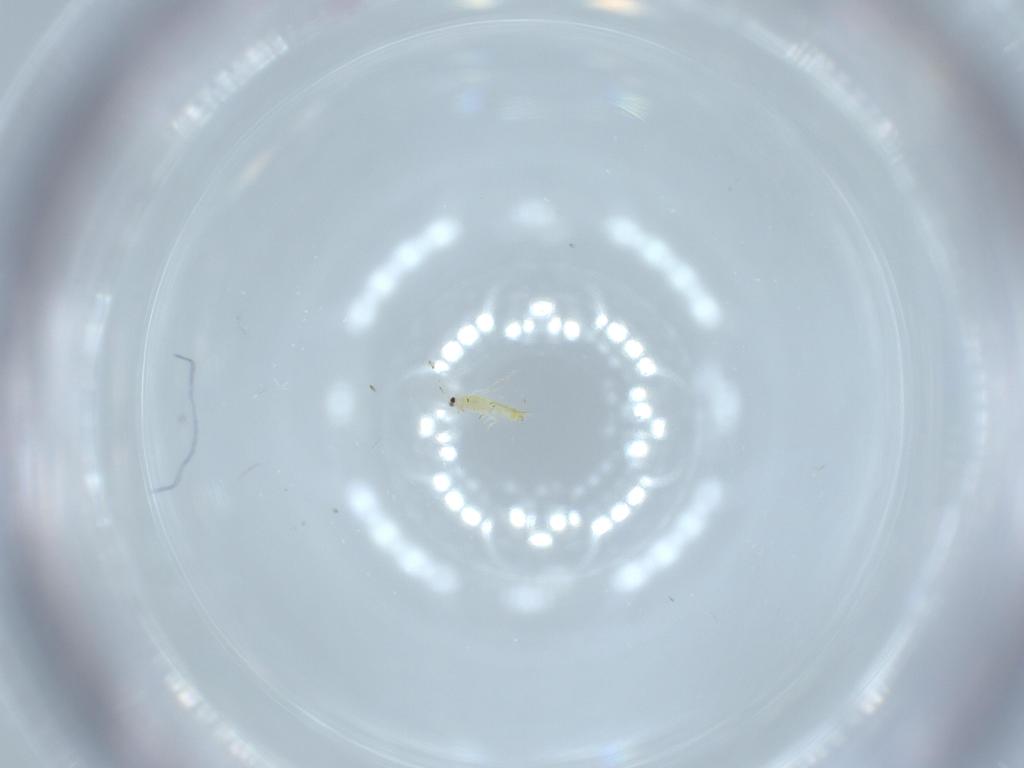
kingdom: Animalia
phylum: Arthropoda
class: Insecta
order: Thysanoptera
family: Thripidae
